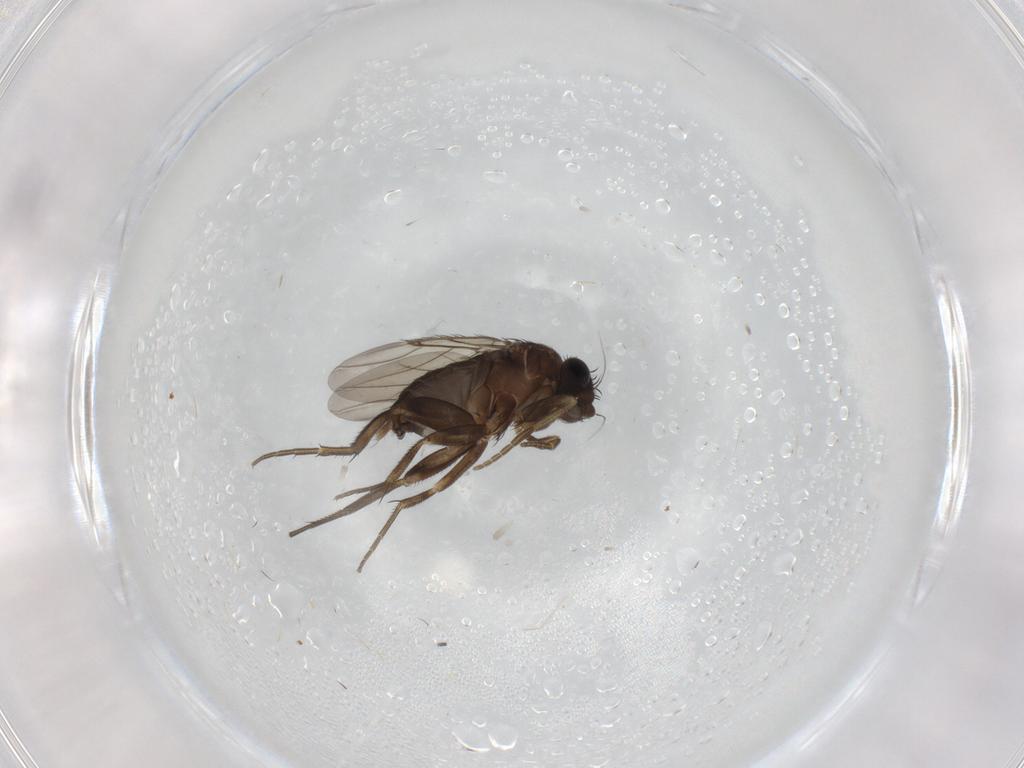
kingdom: Animalia
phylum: Arthropoda
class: Insecta
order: Diptera
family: Phoridae
